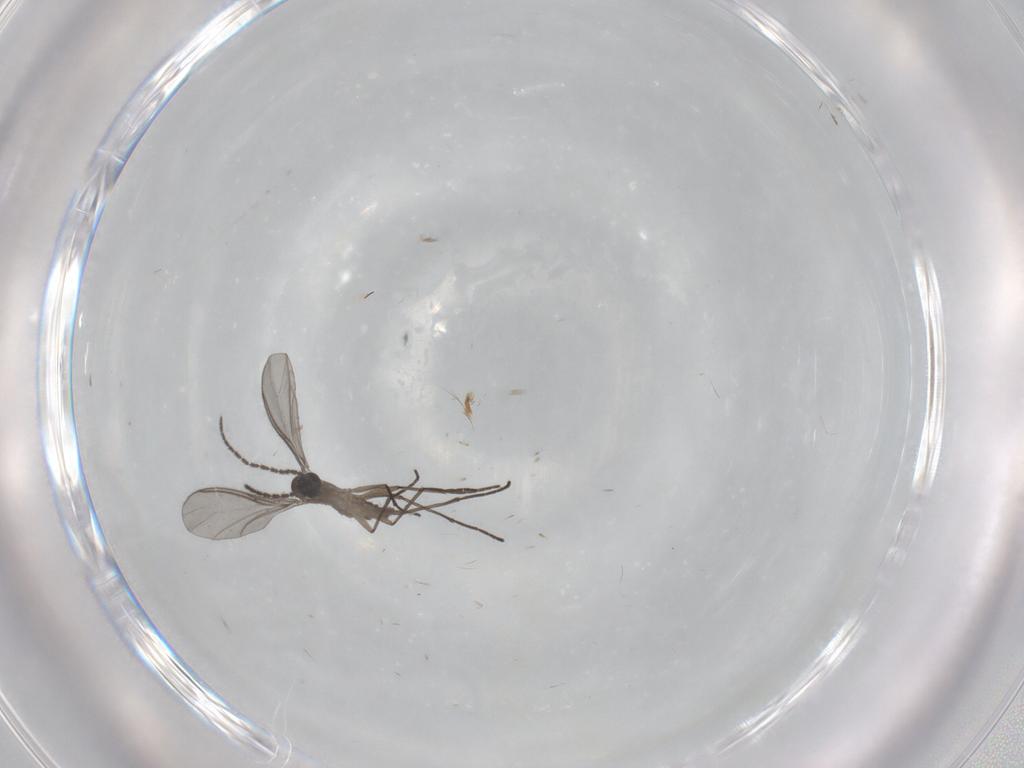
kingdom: Animalia
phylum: Arthropoda
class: Insecta
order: Diptera
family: Sciaridae
